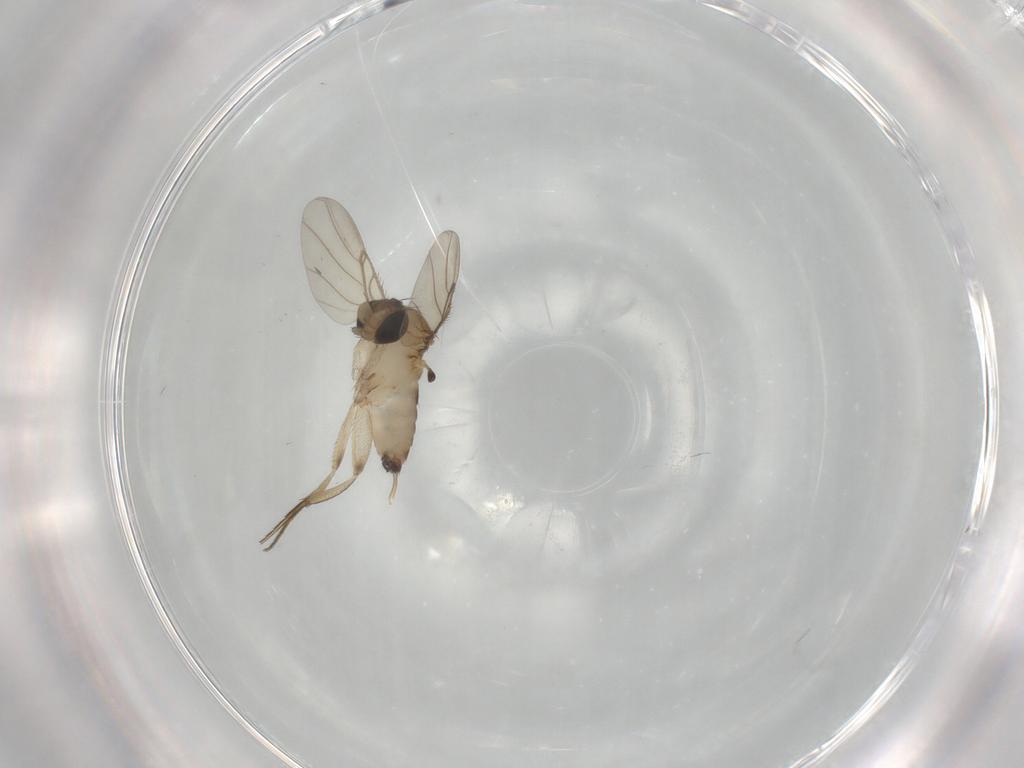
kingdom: Animalia
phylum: Arthropoda
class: Insecta
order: Diptera
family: Phoridae
